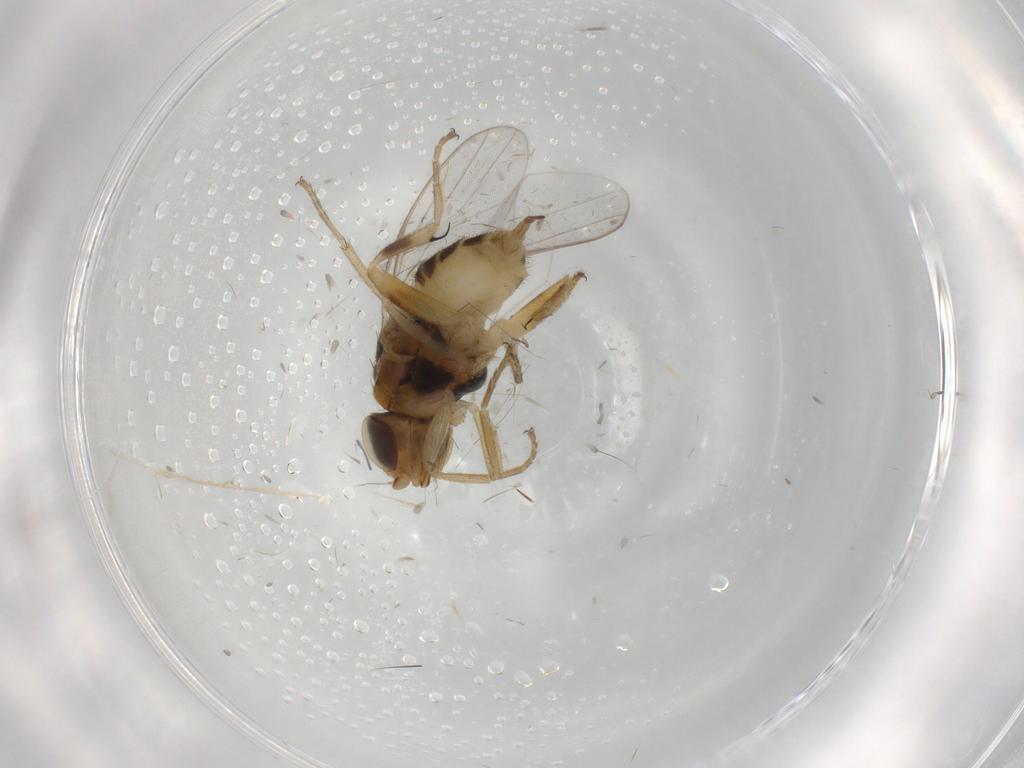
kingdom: Animalia
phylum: Arthropoda
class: Insecta
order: Diptera
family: Chloropidae
